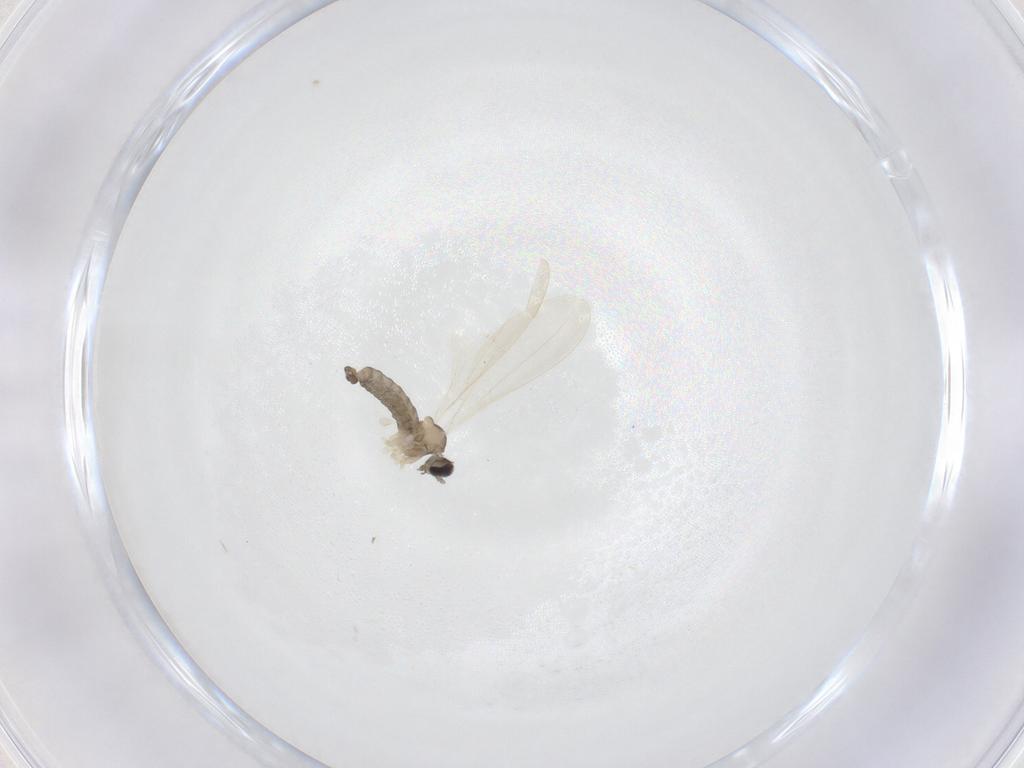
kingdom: Animalia
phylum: Arthropoda
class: Insecta
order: Diptera
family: Cecidomyiidae
